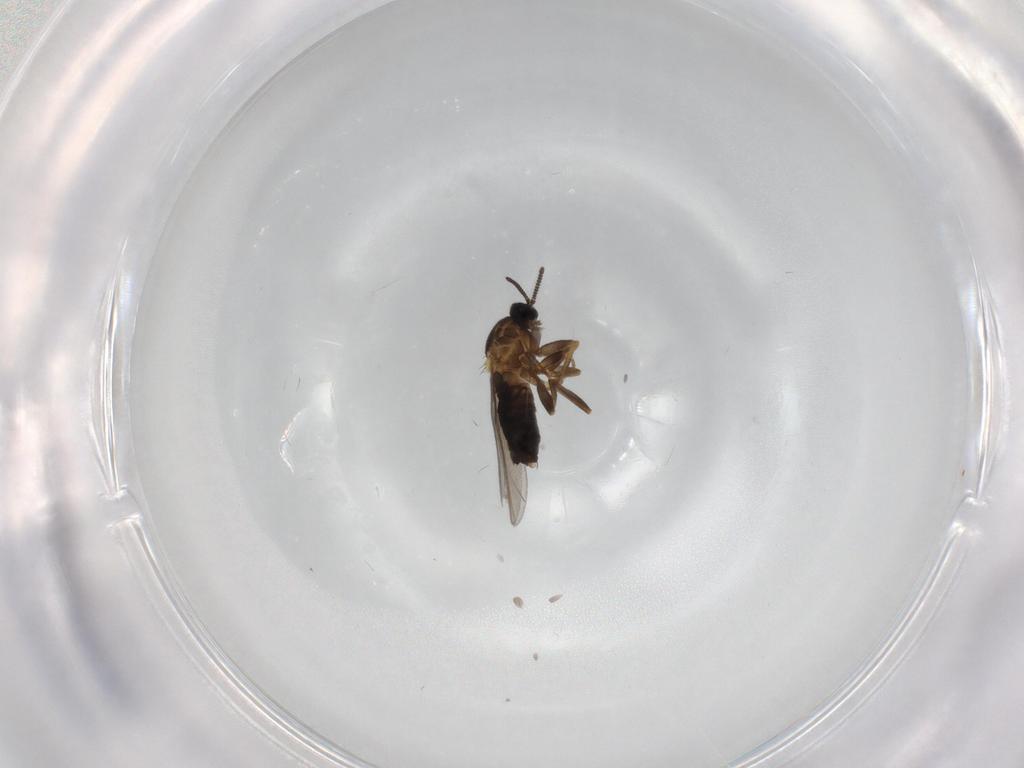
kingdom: Animalia
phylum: Arthropoda
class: Insecta
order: Diptera
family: Scatopsidae
